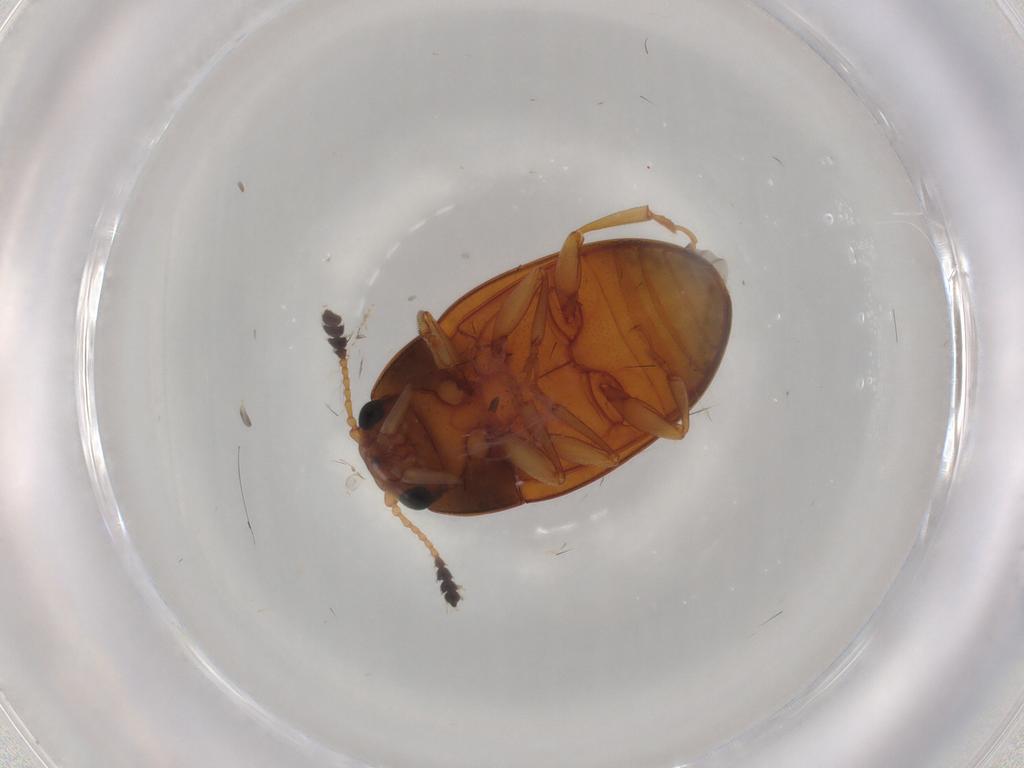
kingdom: Animalia
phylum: Arthropoda
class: Insecta
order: Coleoptera
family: Erotylidae
